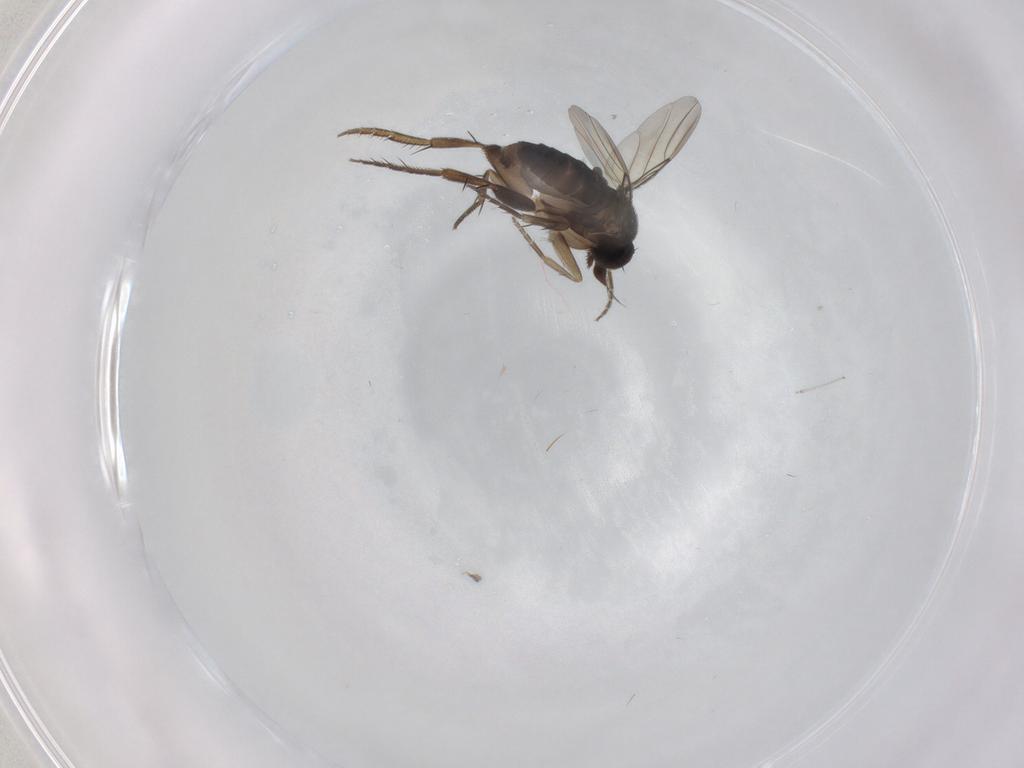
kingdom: Animalia
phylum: Arthropoda
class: Insecta
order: Diptera
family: Phoridae
